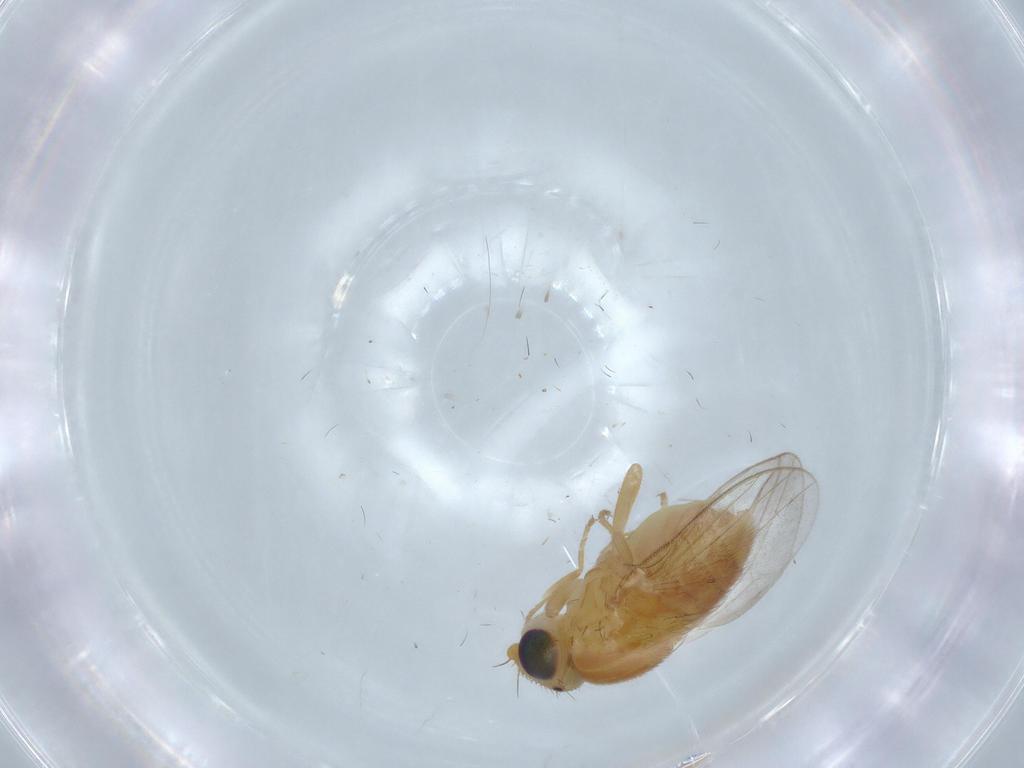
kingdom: Animalia
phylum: Arthropoda
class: Insecta
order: Diptera
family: Chloropidae
